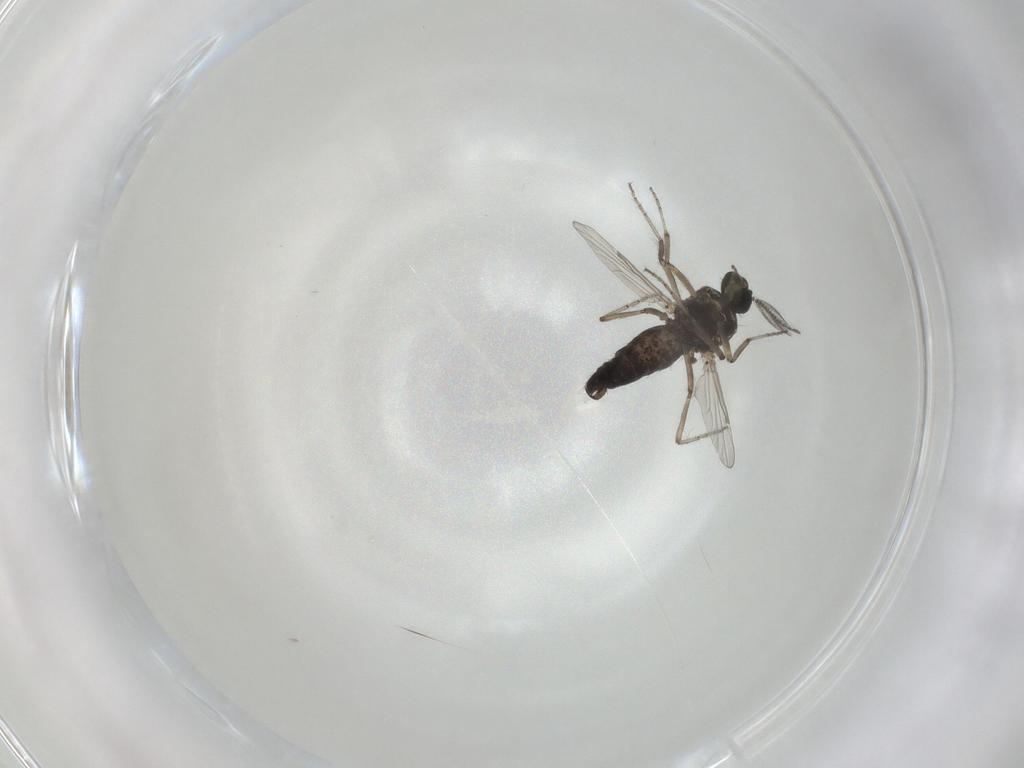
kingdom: Animalia
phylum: Arthropoda
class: Insecta
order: Diptera
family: Ceratopogonidae
